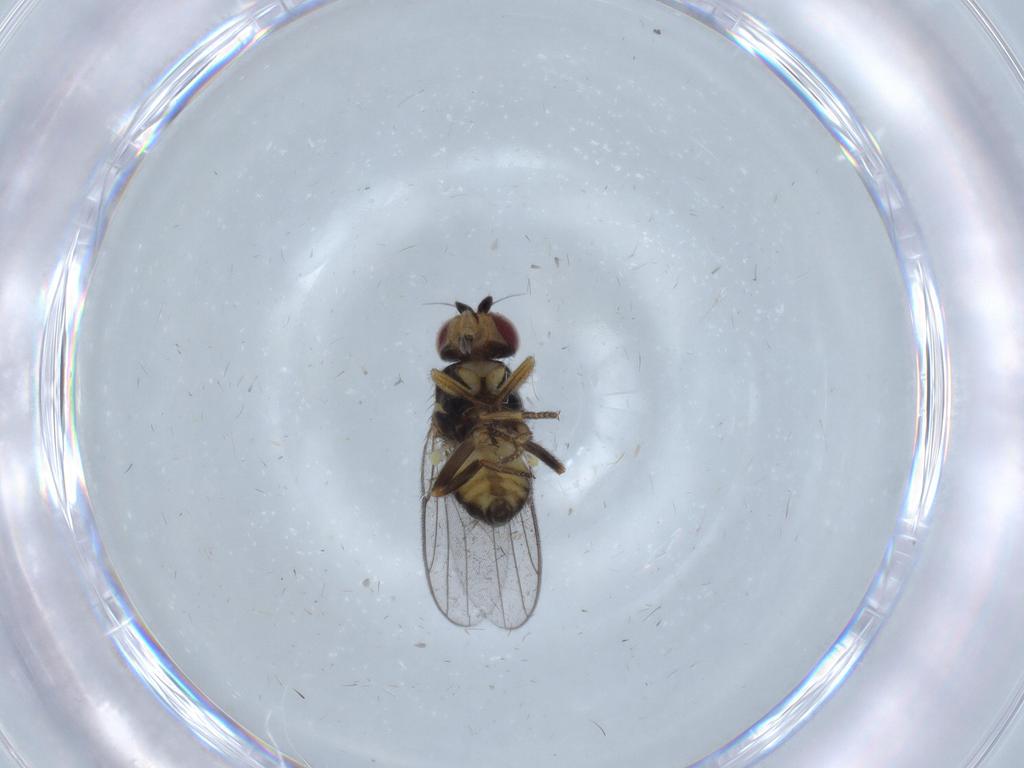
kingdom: Animalia
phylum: Arthropoda
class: Insecta
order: Diptera
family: Chloropidae
